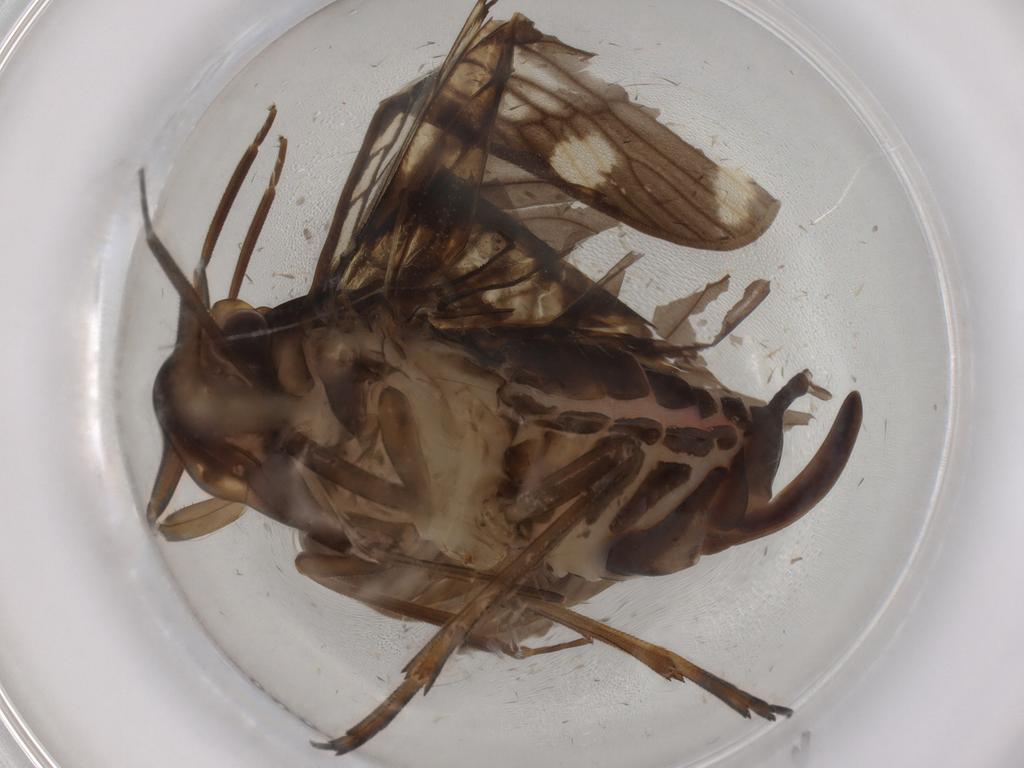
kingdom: Animalia
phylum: Arthropoda
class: Insecta
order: Hemiptera
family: Cixiidae
